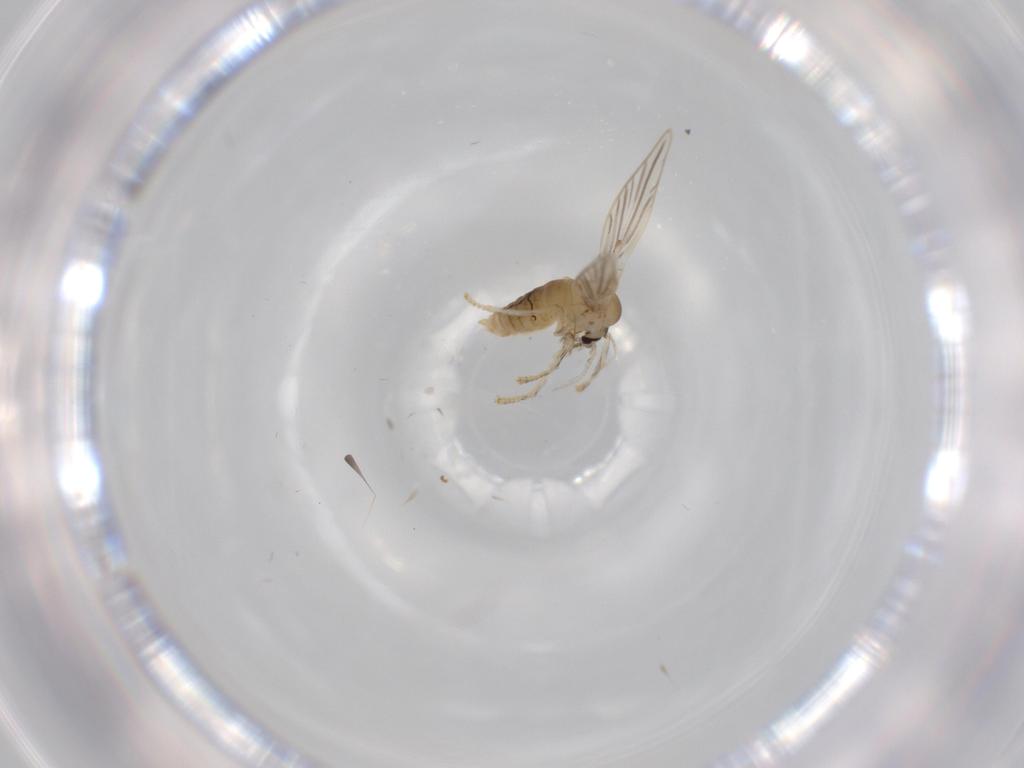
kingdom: Animalia
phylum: Arthropoda
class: Insecta
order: Diptera
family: Psychodidae
